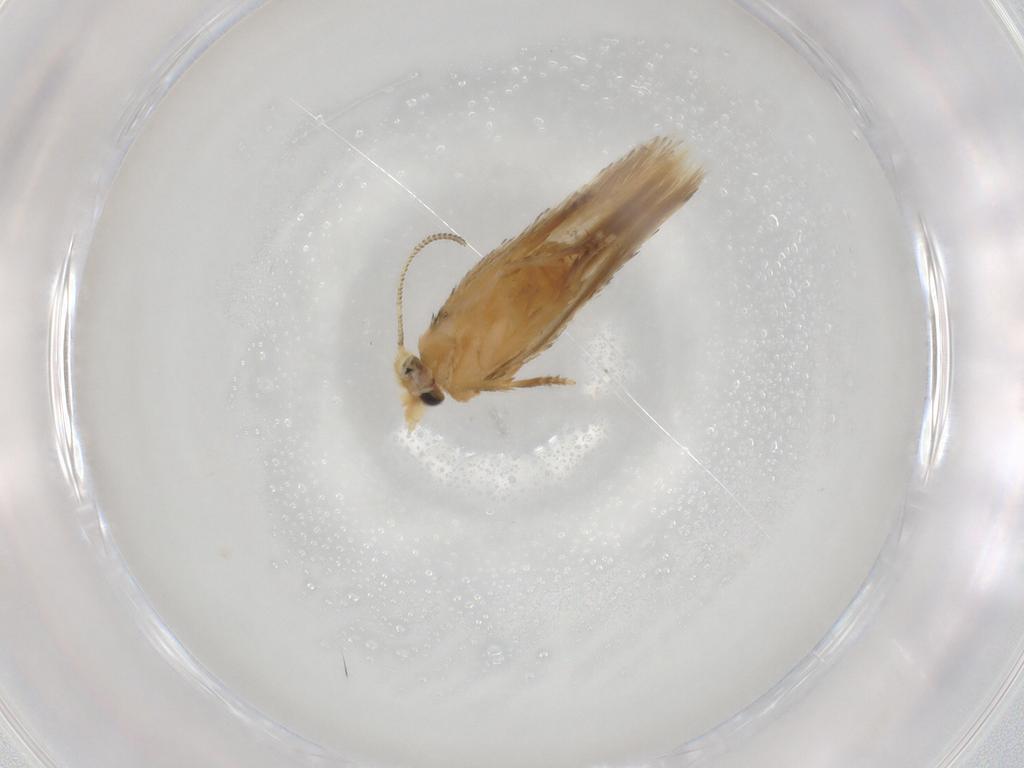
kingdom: Animalia
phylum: Arthropoda
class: Insecta
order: Lepidoptera
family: Nepticulidae
